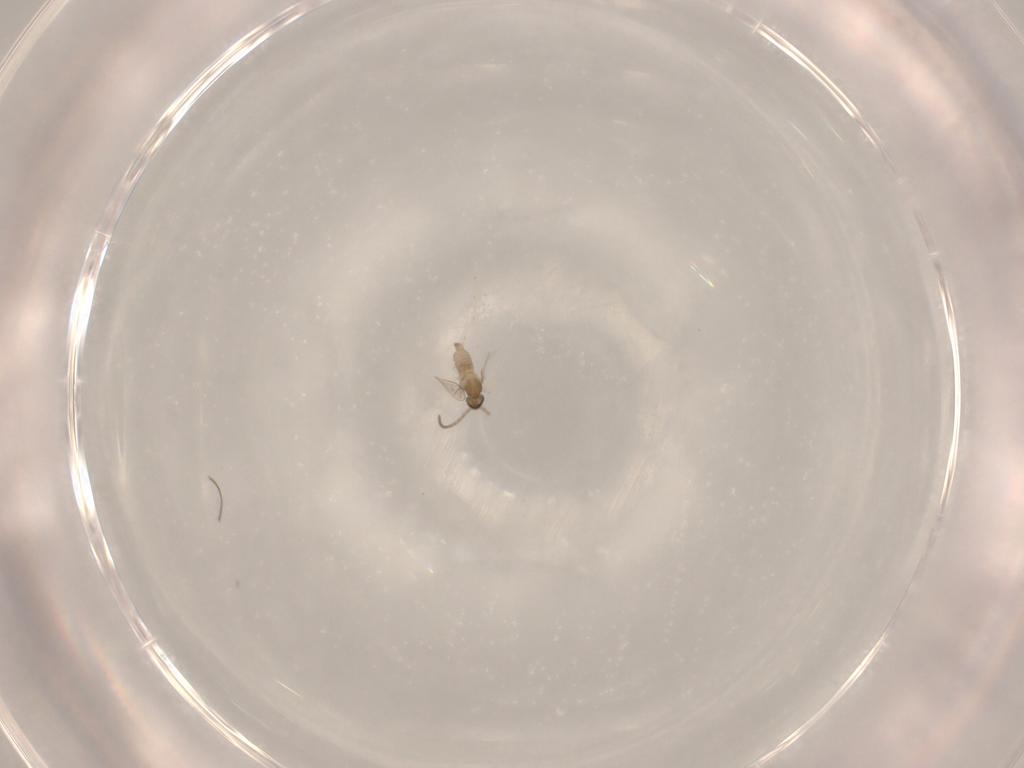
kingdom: Animalia
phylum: Arthropoda
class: Insecta
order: Diptera
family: Cecidomyiidae
